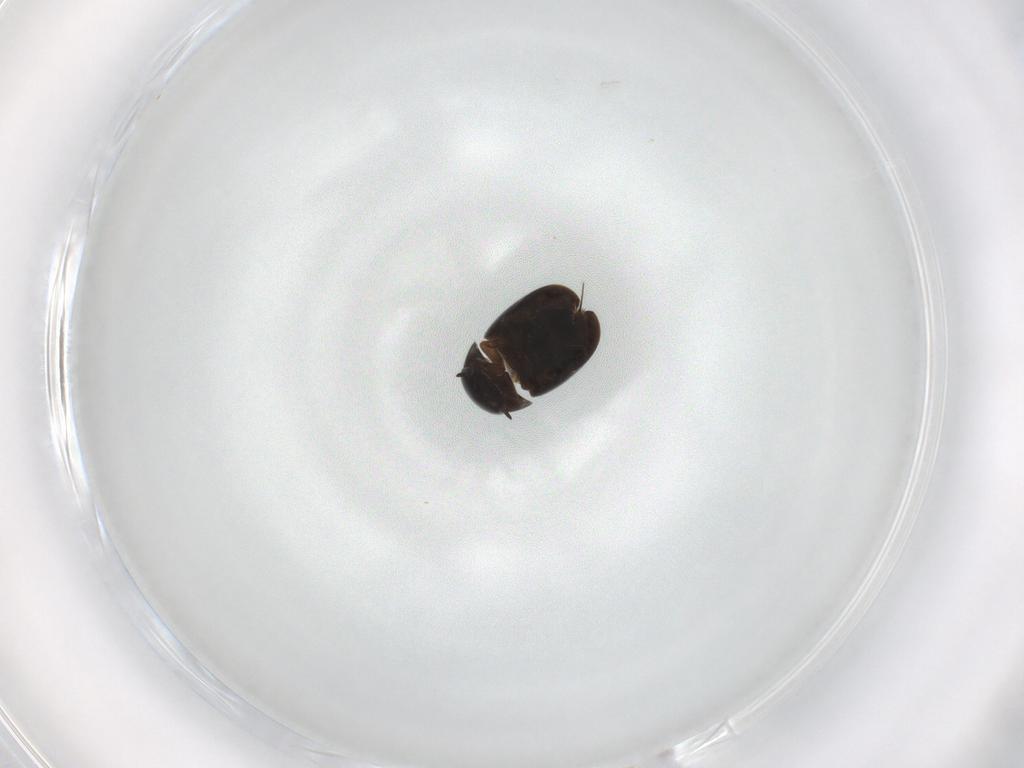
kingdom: Animalia
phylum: Arthropoda
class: Insecta
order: Coleoptera
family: Hydrophilidae
